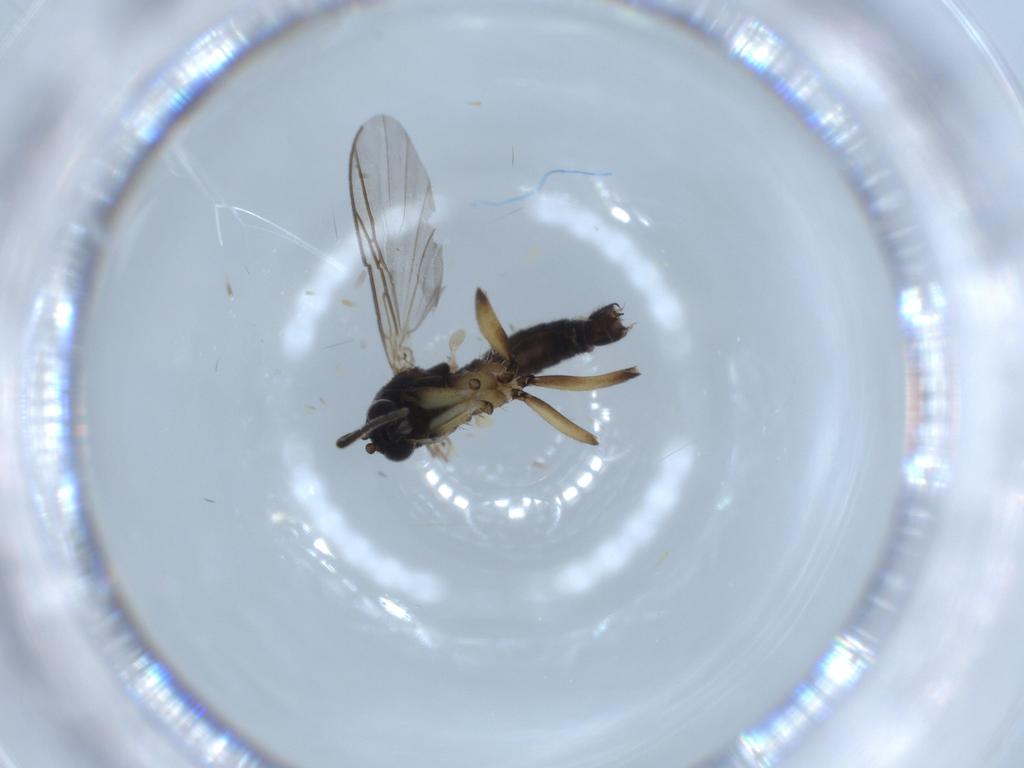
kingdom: Animalia
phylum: Arthropoda
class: Insecta
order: Diptera
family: Mycetophilidae
